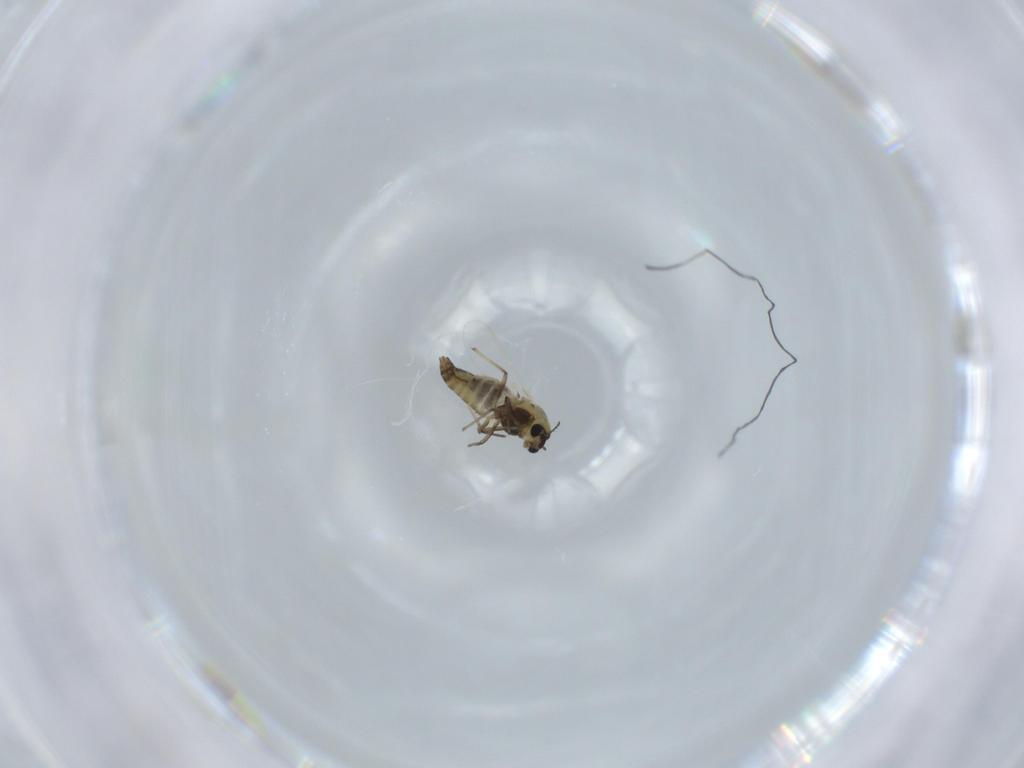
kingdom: Animalia
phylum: Arthropoda
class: Insecta
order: Diptera
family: Chironomidae
